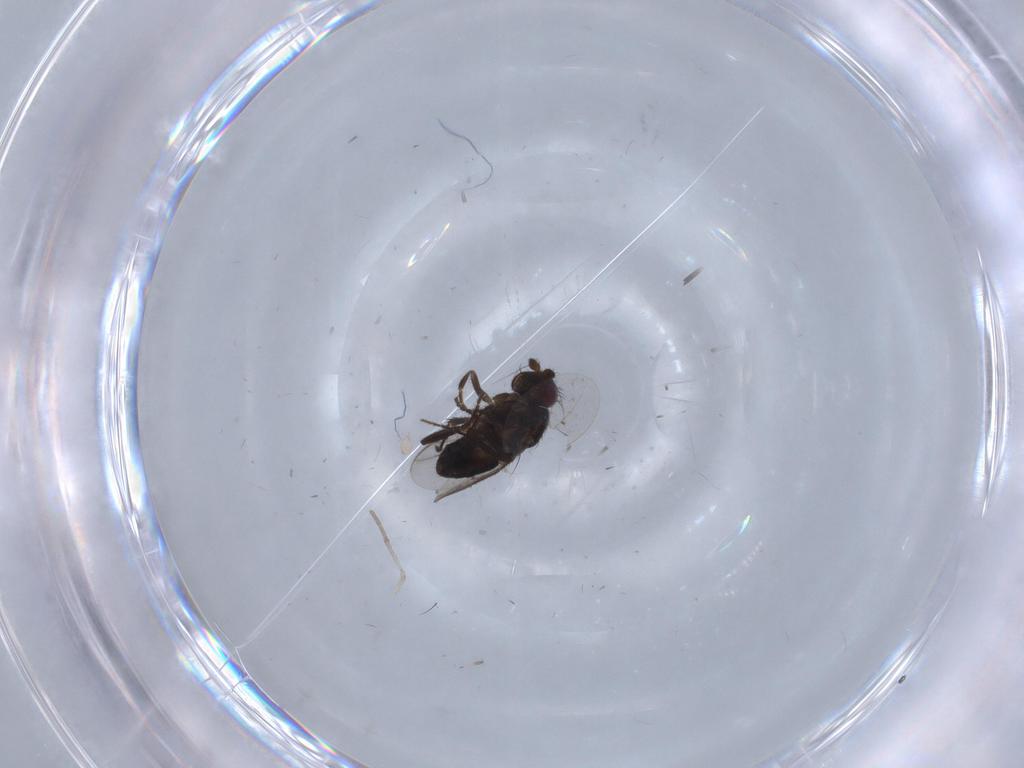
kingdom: Animalia
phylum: Arthropoda
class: Insecta
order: Diptera
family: Sphaeroceridae
